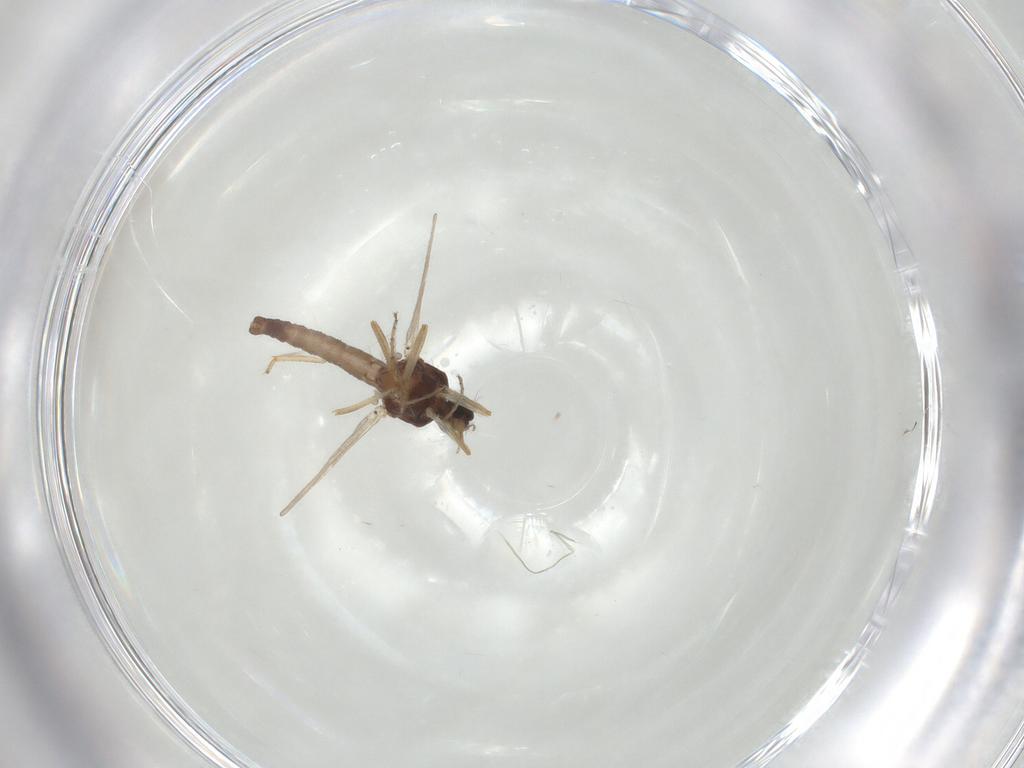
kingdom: Animalia
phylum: Arthropoda
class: Insecta
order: Diptera
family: Ceratopogonidae
